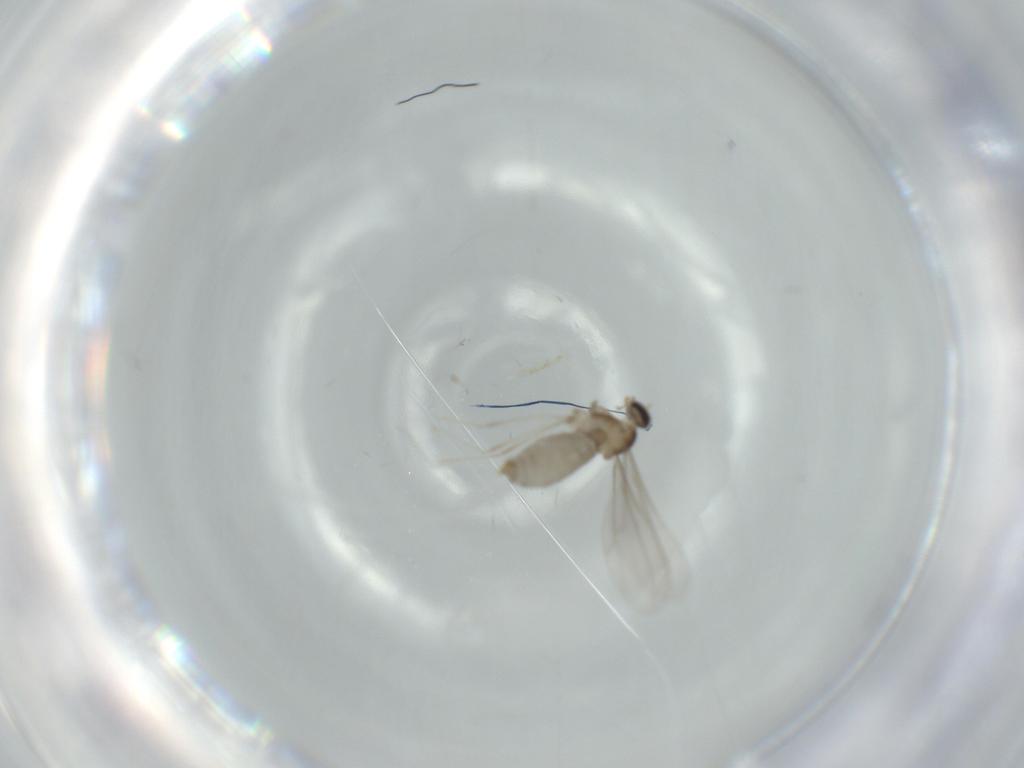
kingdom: Animalia
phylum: Arthropoda
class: Insecta
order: Diptera
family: Cecidomyiidae
